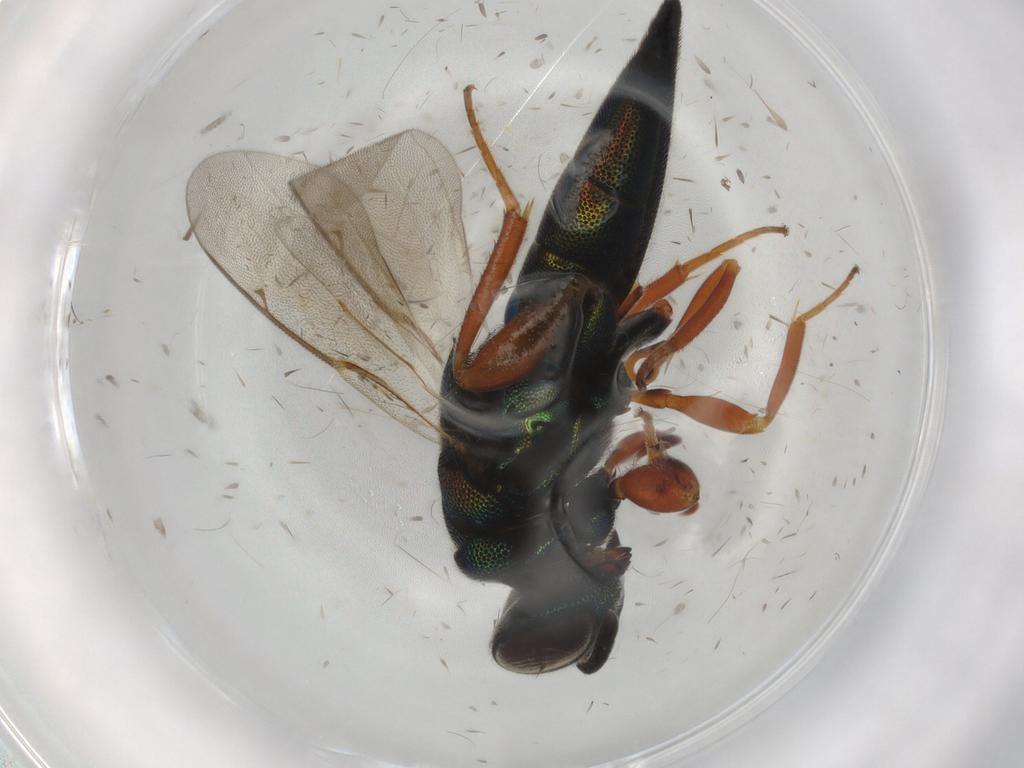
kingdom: Animalia
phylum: Arthropoda
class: Insecta
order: Hymenoptera
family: Lyciscidae
